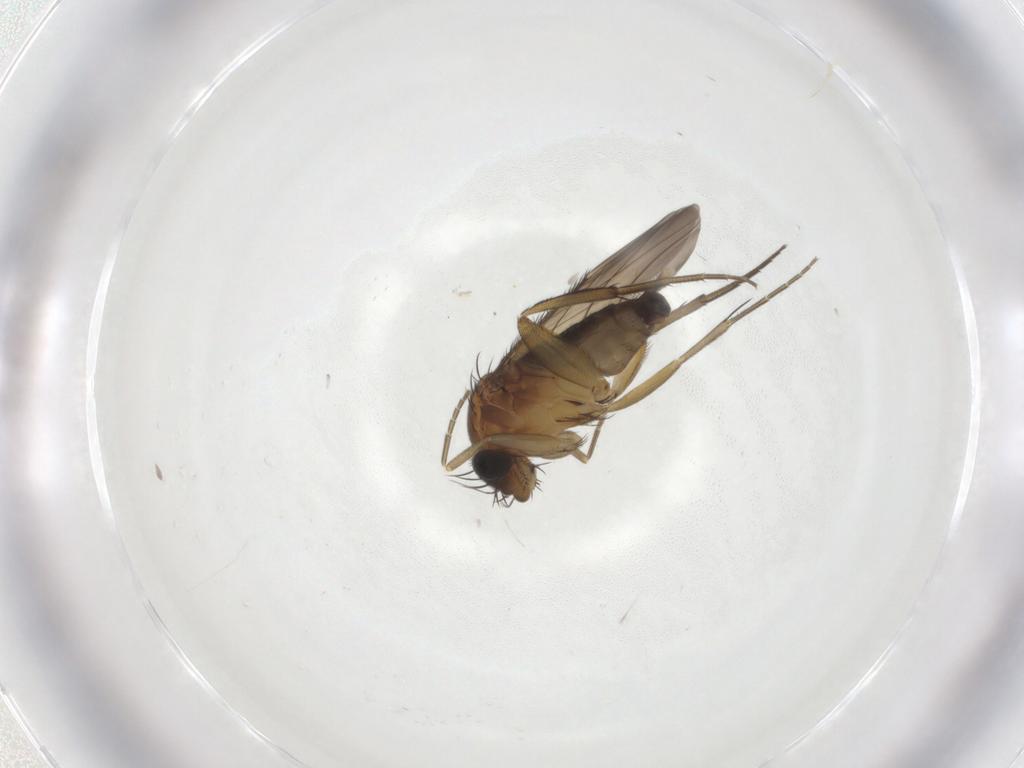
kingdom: Animalia
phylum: Arthropoda
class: Insecta
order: Diptera
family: Phoridae
